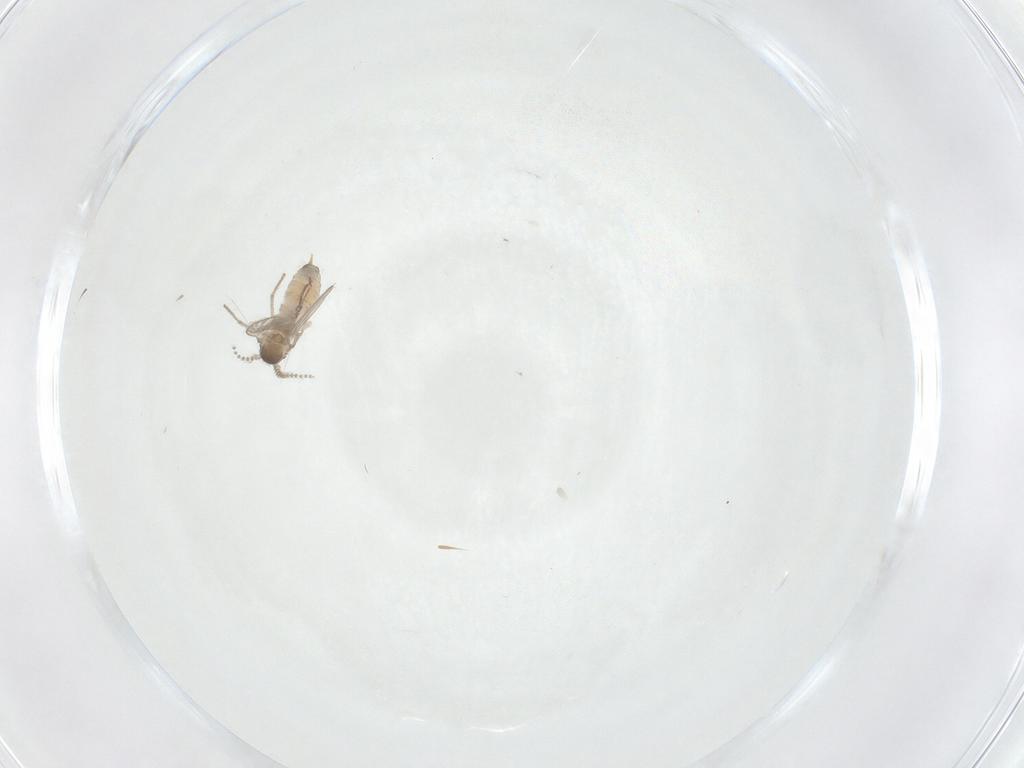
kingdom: Animalia
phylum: Arthropoda
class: Insecta
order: Diptera
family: Psychodidae
